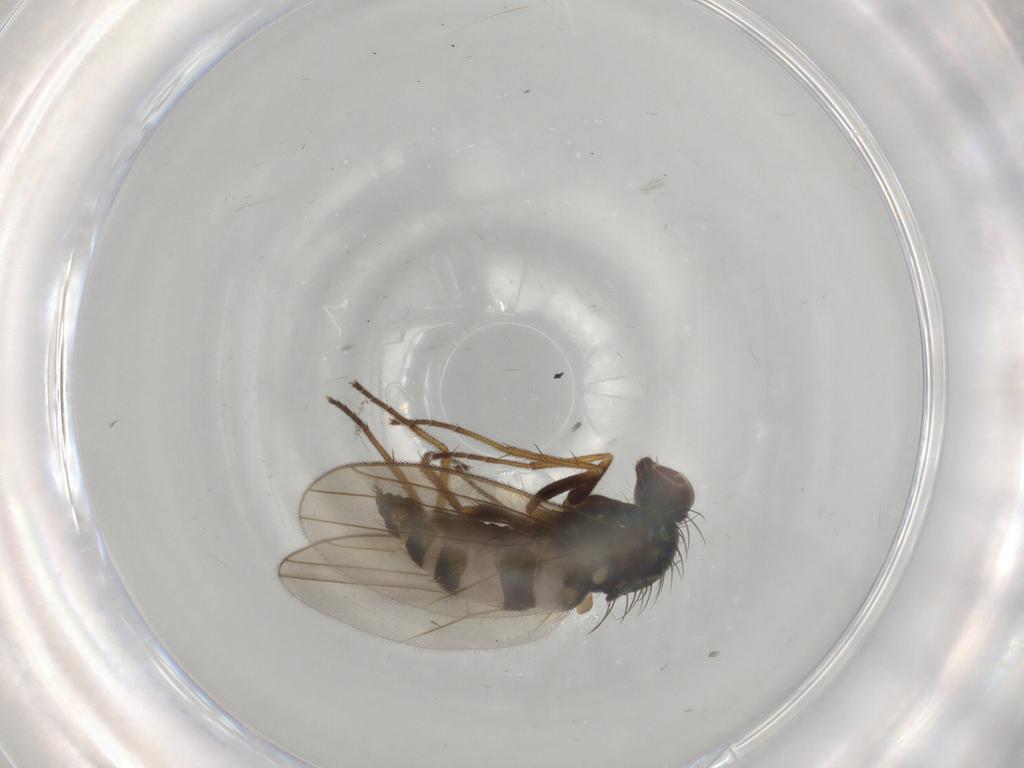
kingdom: Animalia
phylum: Arthropoda
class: Insecta
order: Diptera
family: Dolichopodidae
